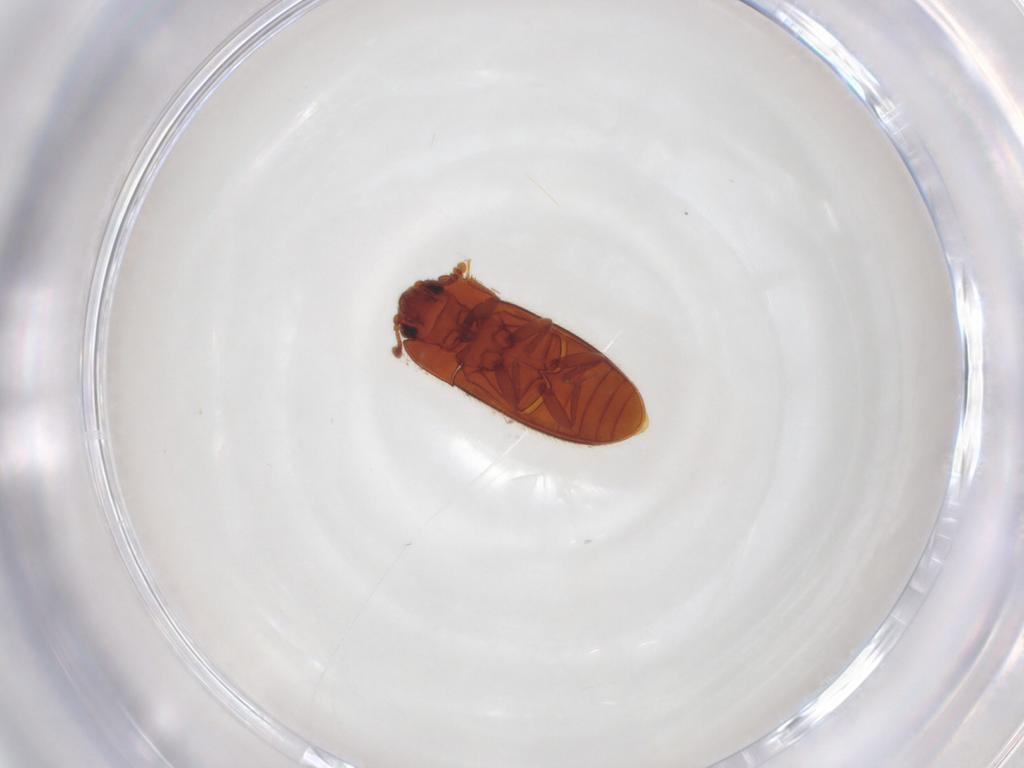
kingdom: Animalia
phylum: Arthropoda
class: Insecta
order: Coleoptera
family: Biphyllidae
